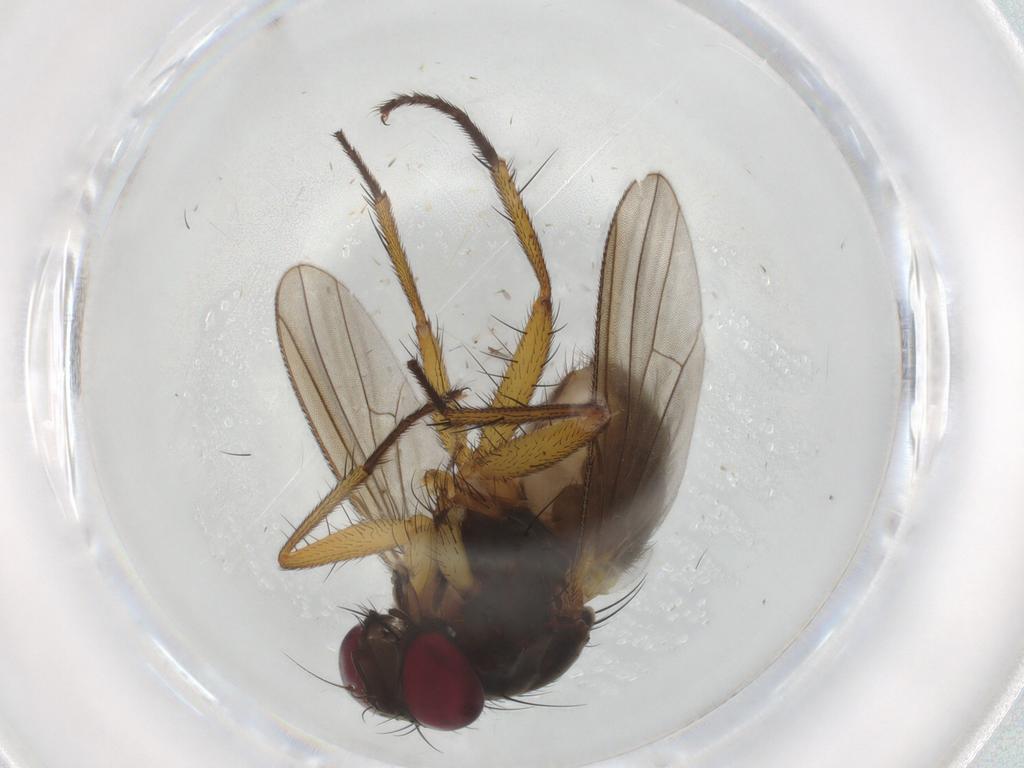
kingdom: Animalia
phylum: Arthropoda
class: Insecta
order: Diptera
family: Muscidae
